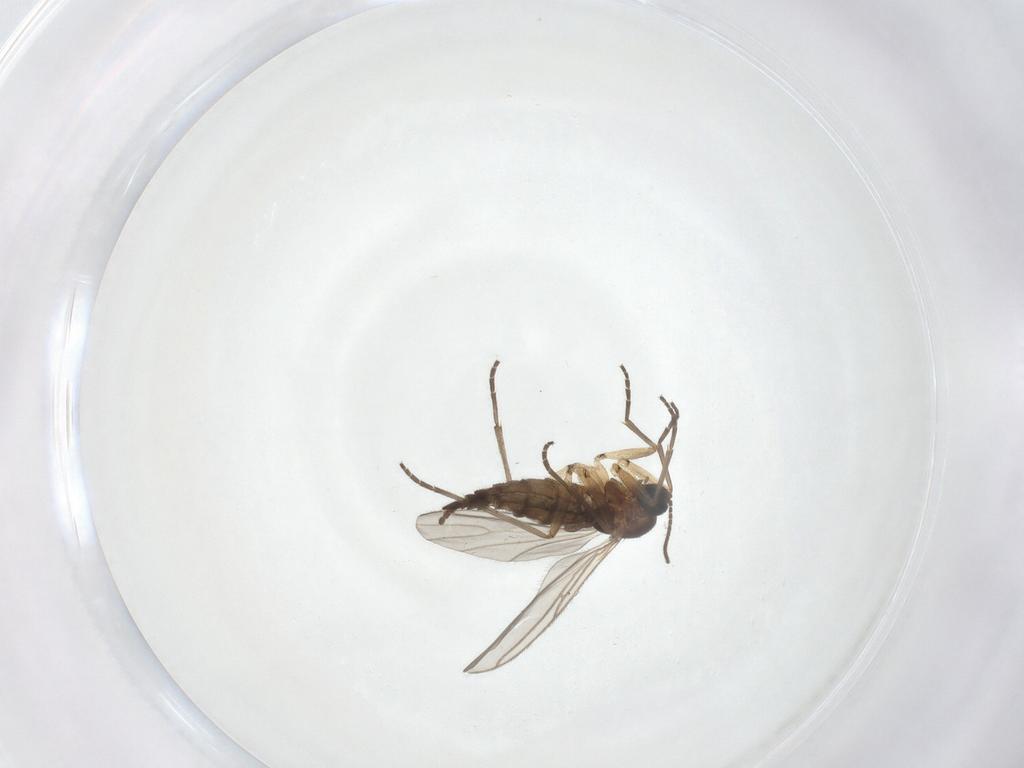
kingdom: Animalia
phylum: Arthropoda
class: Insecta
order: Diptera
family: Sciaridae
